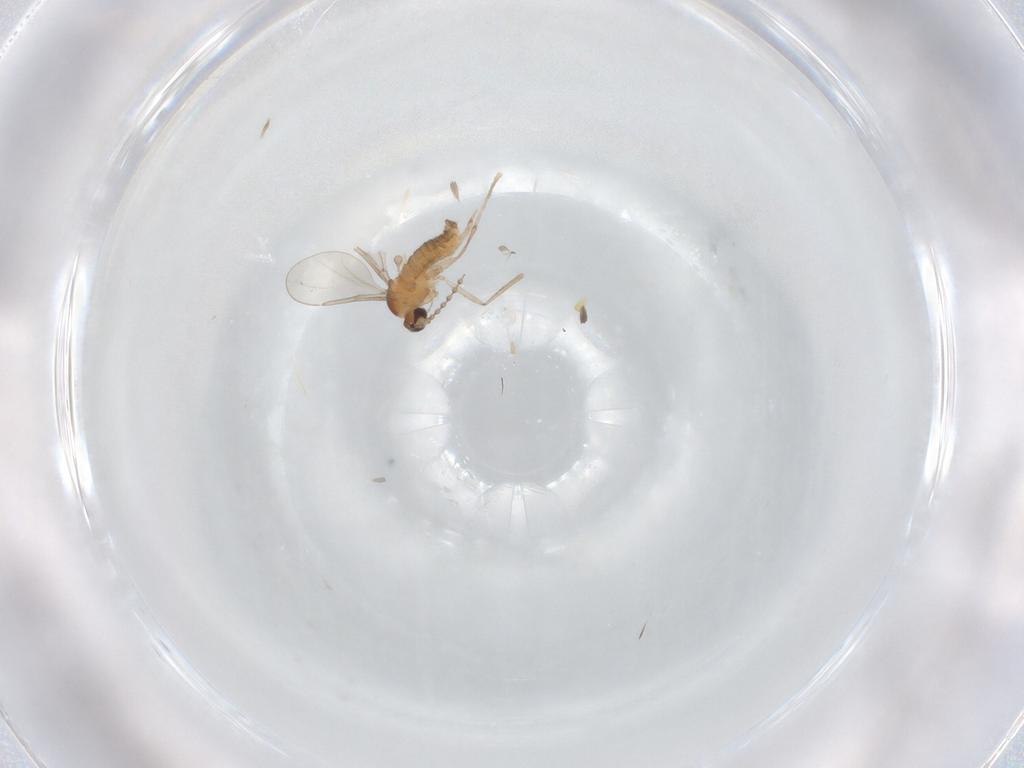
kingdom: Animalia
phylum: Arthropoda
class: Insecta
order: Diptera
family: Cecidomyiidae
